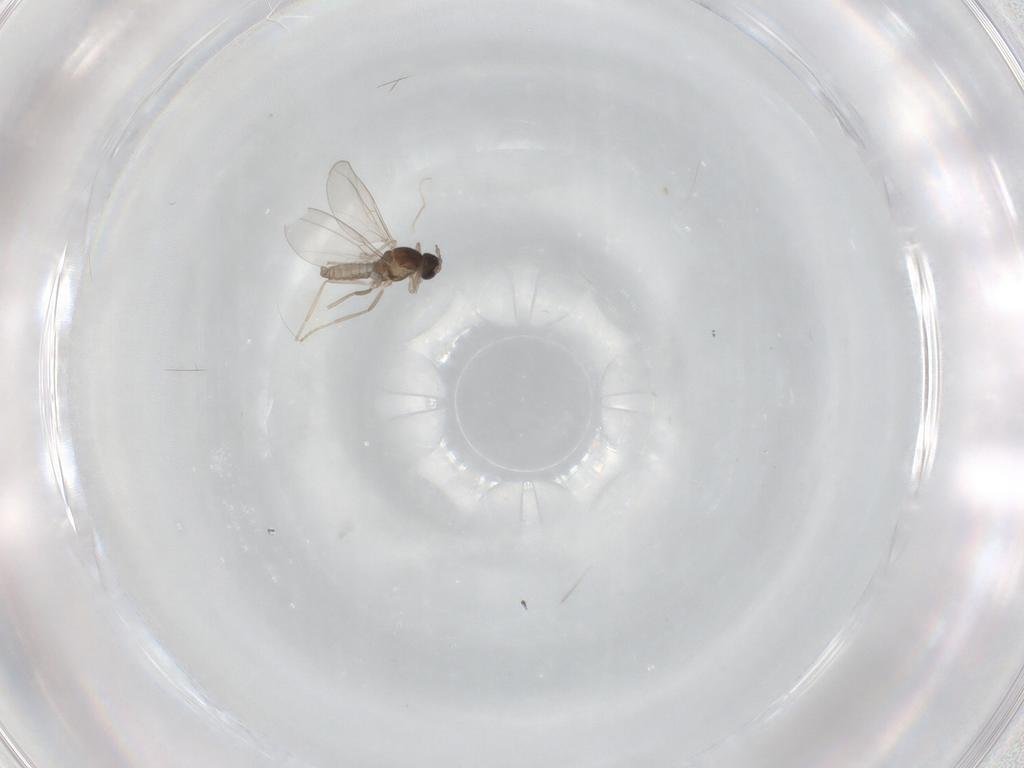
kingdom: Animalia
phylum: Arthropoda
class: Insecta
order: Diptera
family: Cecidomyiidae
